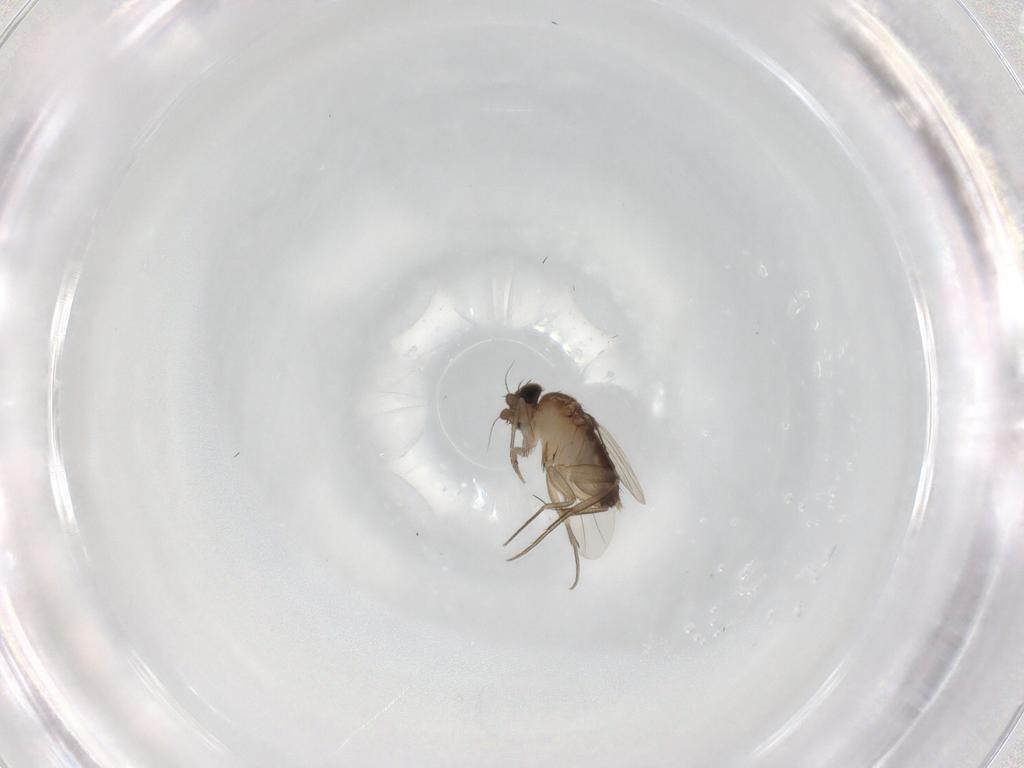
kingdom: Animalia
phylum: Arthropoda
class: Insecta
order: Diptera
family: Phoridae
